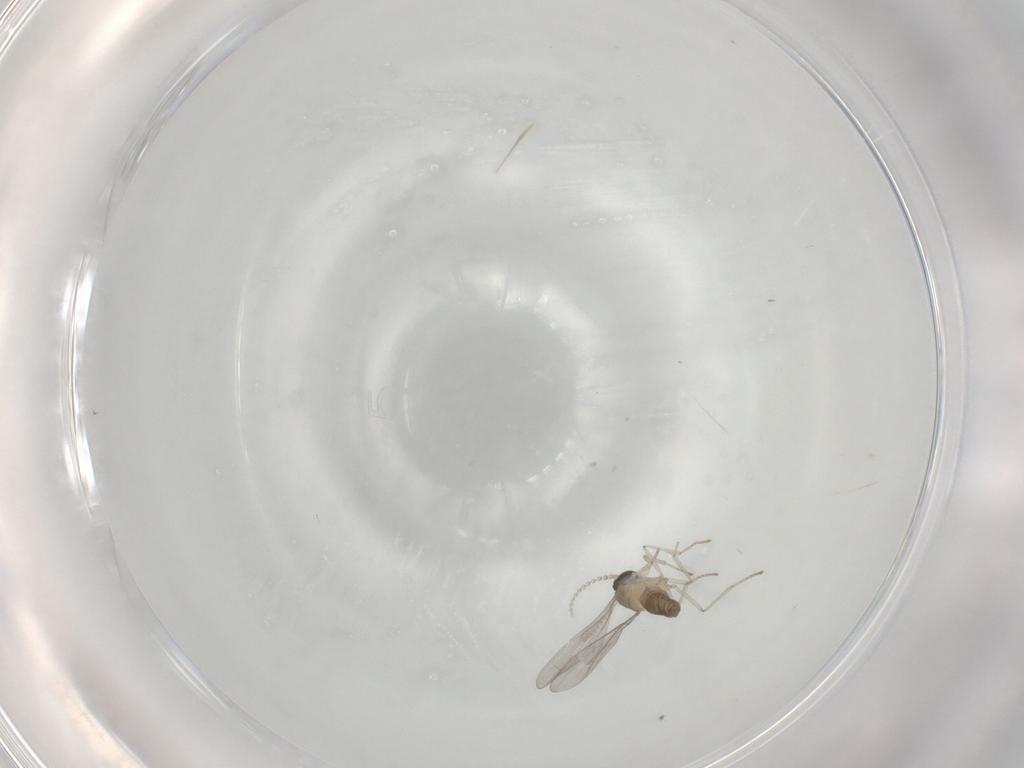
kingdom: Animalia
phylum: Arthropoda
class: Insecta
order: Diptera
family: Cecidomyiidae
